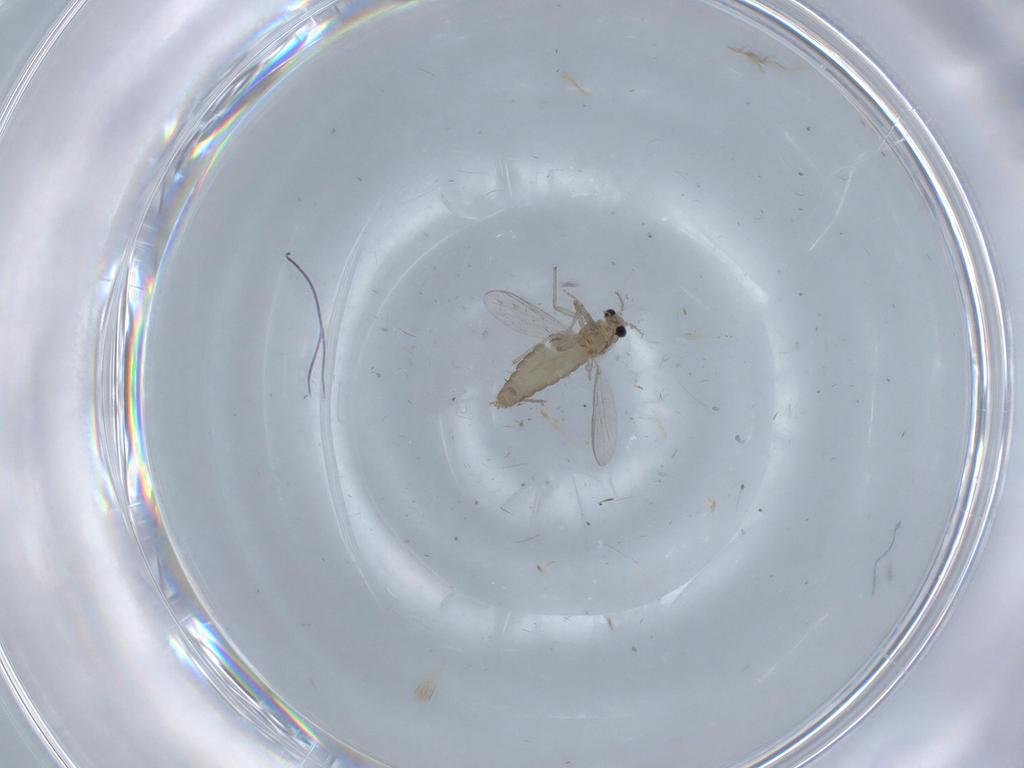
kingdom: Animalia
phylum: Arthropoda
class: Insecta
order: Diptera
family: Chironomidae
